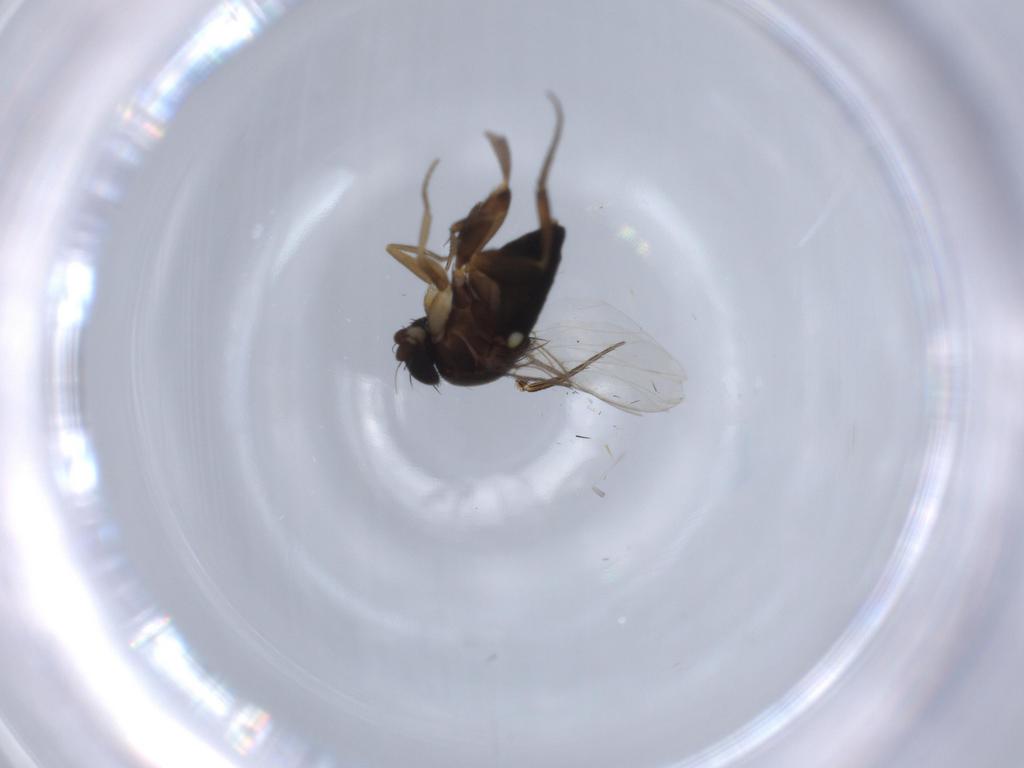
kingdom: Animalia
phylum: Arthropoda
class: Insecta
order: Diptera
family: Phoridae
